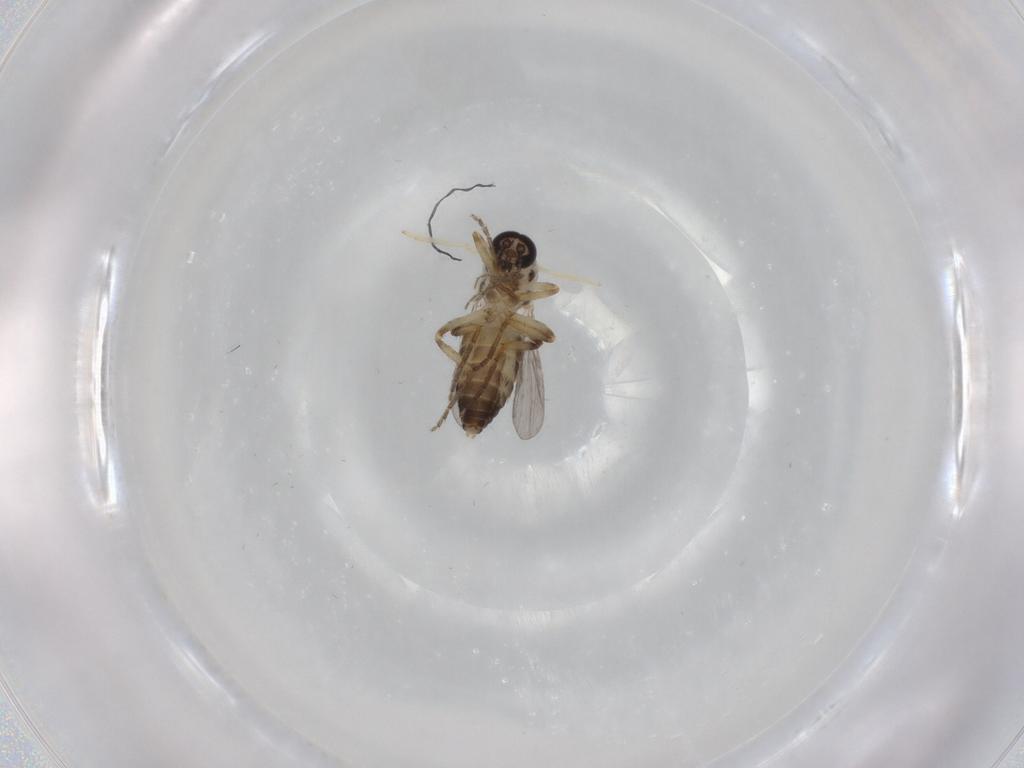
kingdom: Animalia
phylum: Arthropoda
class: Insecta
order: Diptera
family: Ceratopogonidae
